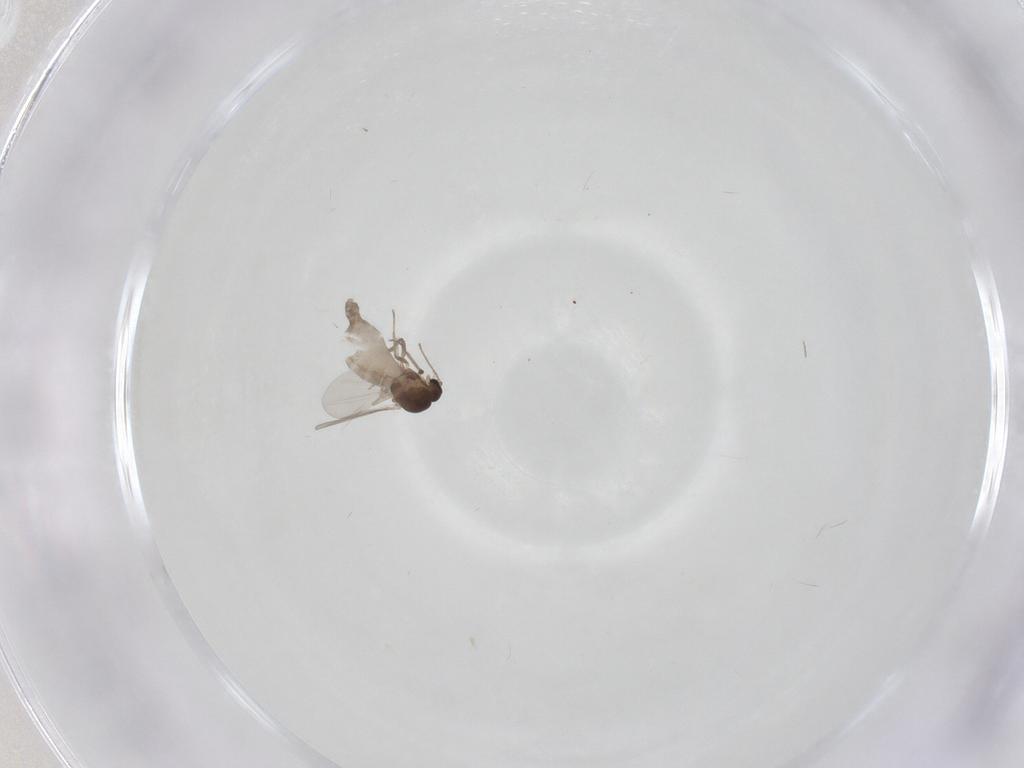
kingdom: Animalia
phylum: Arthropoda
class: Insecta
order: Diptera
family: Ceratopogonidae
